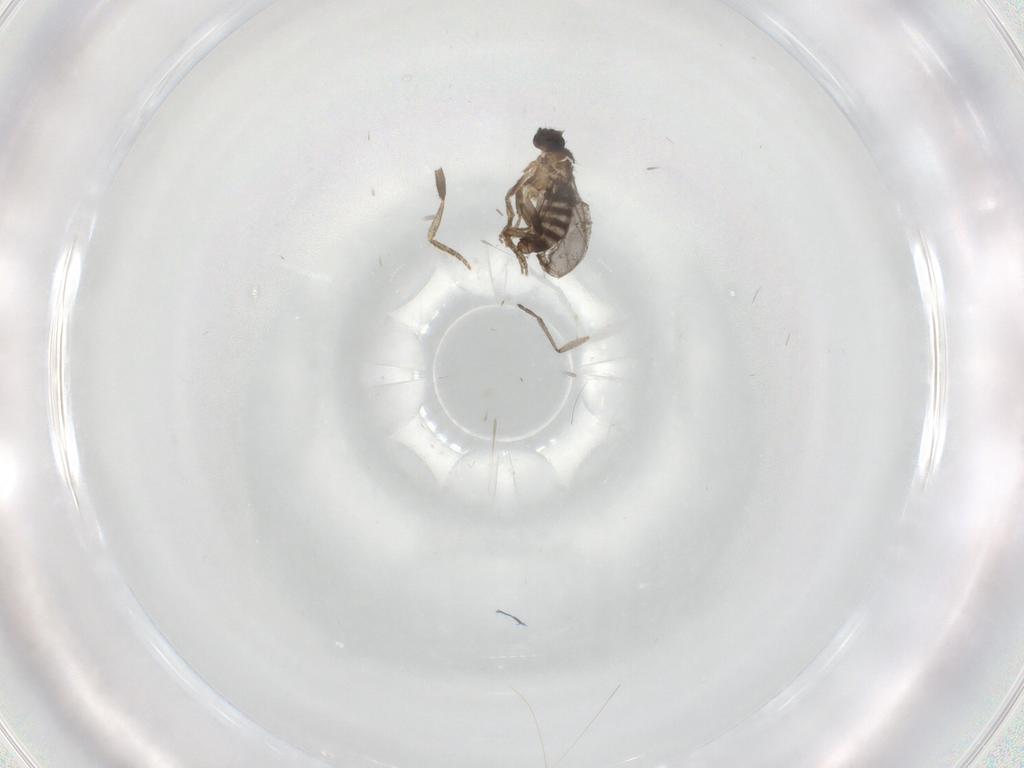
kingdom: Animalia
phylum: Arthropoda
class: Insecta
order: Diptera
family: Sciaridae
